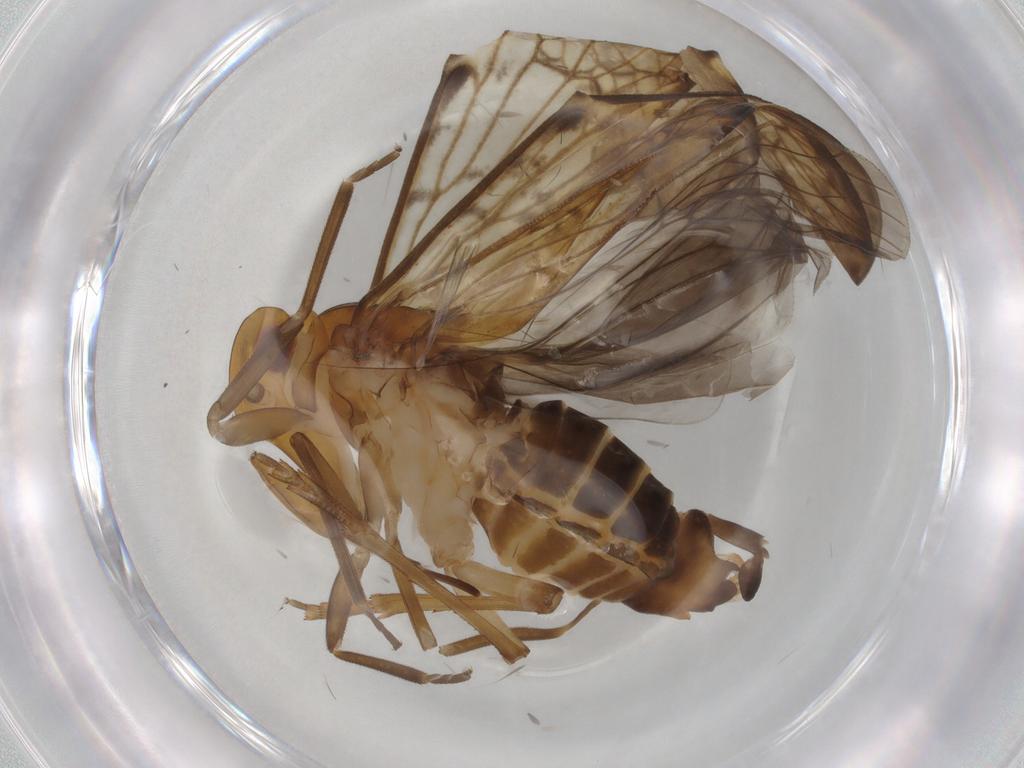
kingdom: Animalia
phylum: Arthropoda
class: Insecta
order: Hemiptera
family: Cixiidae
